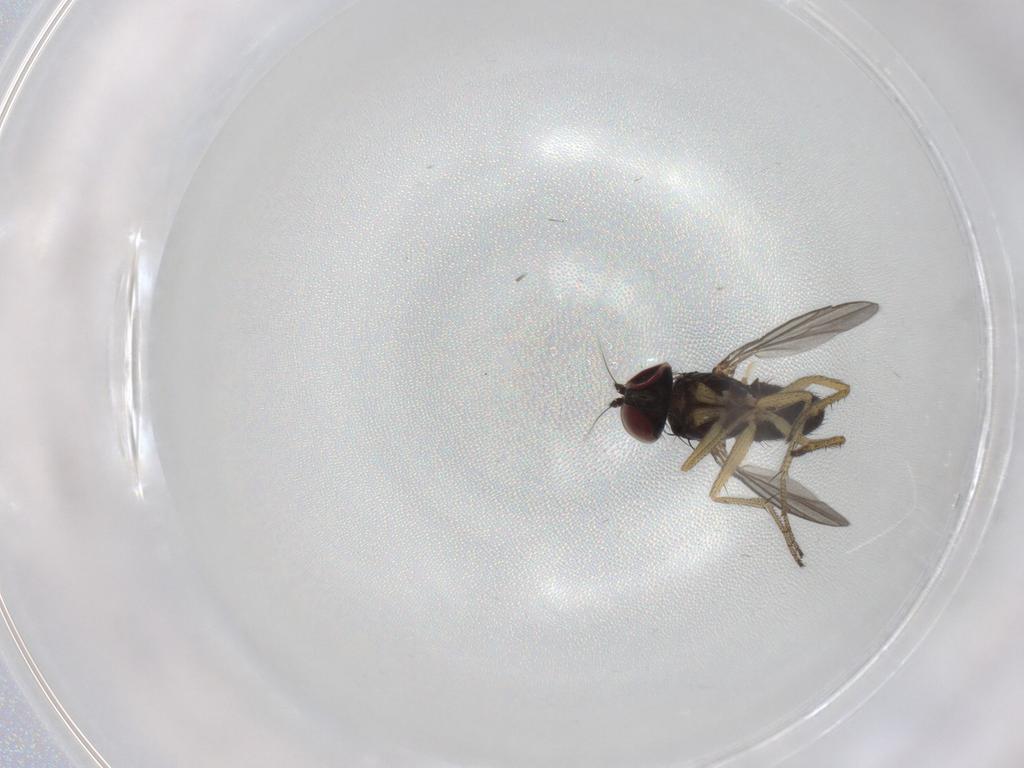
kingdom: Animalia
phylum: Arthropoda
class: Insecta
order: Diptera
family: Dolichopodidae
